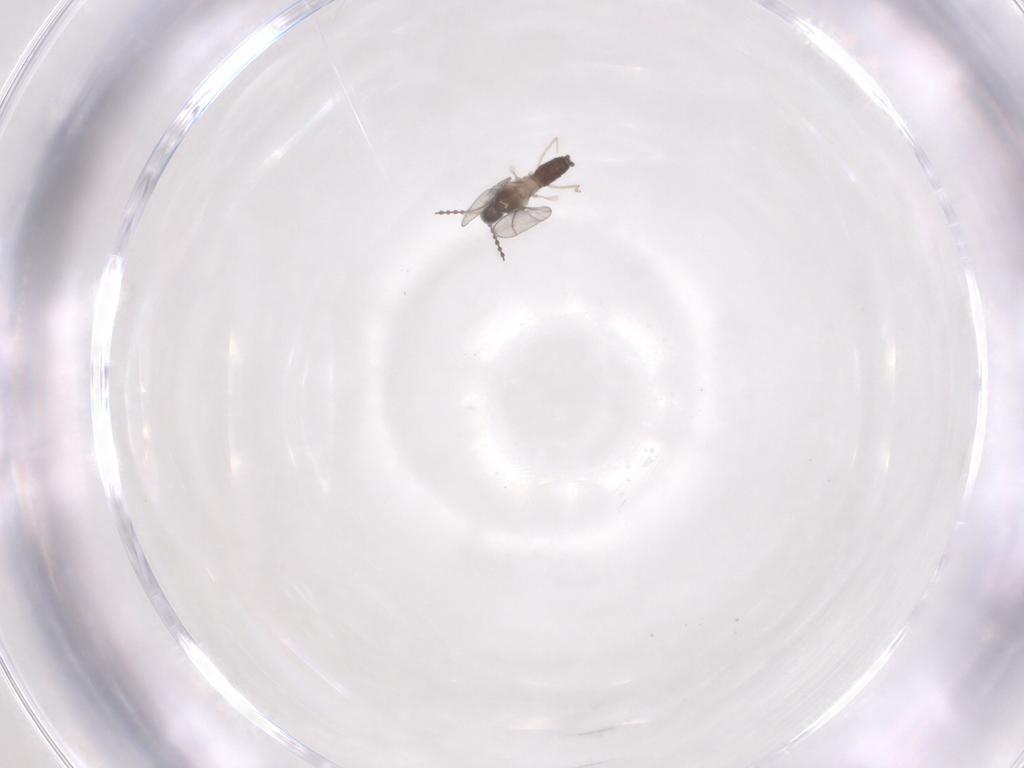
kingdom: Animalia
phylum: Arthropoda
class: Insecta
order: Diptera
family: Cecidomyiidae
